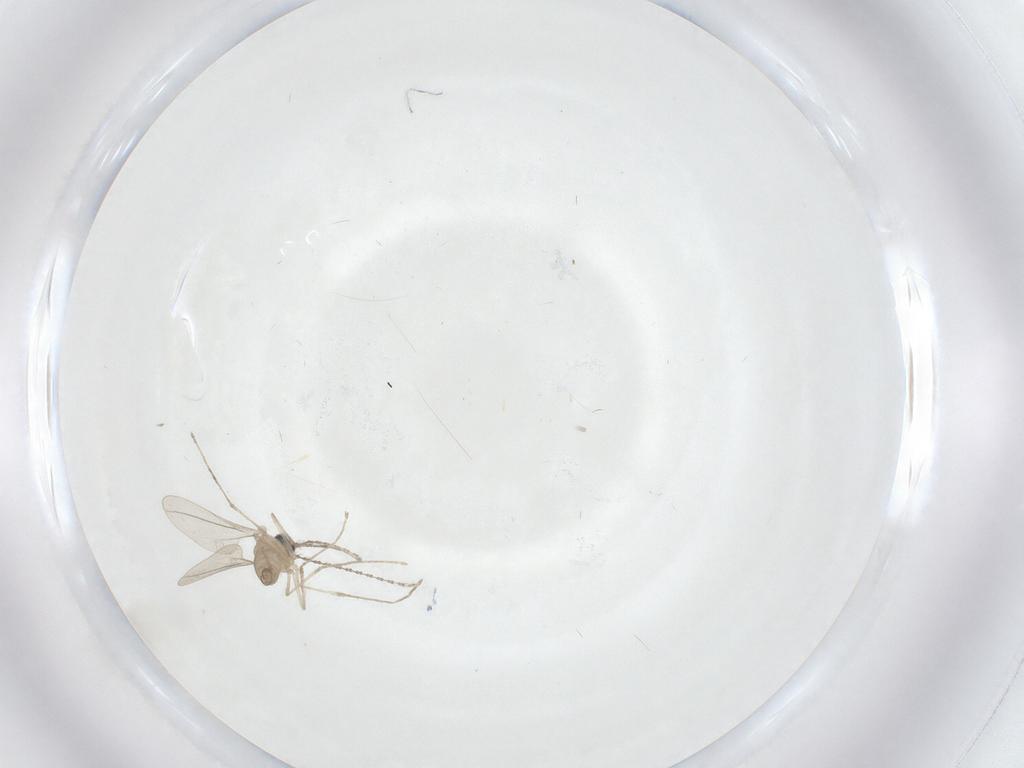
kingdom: Animalia
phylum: Arthropoda
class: Insecta
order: Diptera
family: Cecidomyiidae
